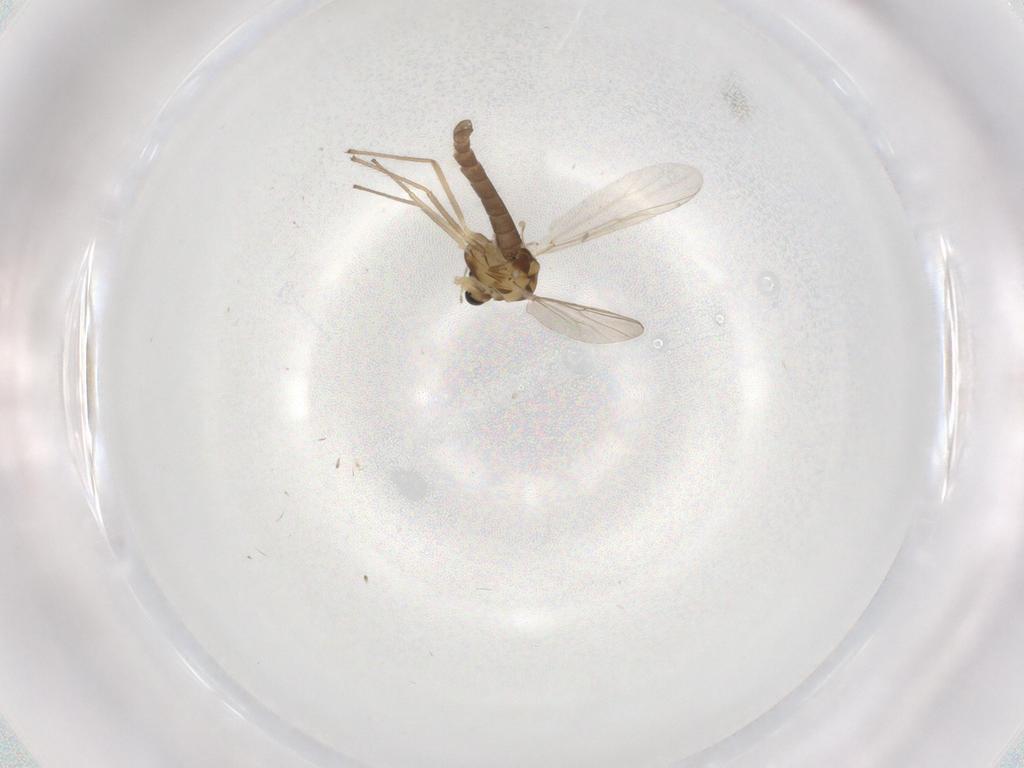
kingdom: Animalia
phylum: Arthropoda
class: Insecta
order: Diptera
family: Chironomidae
